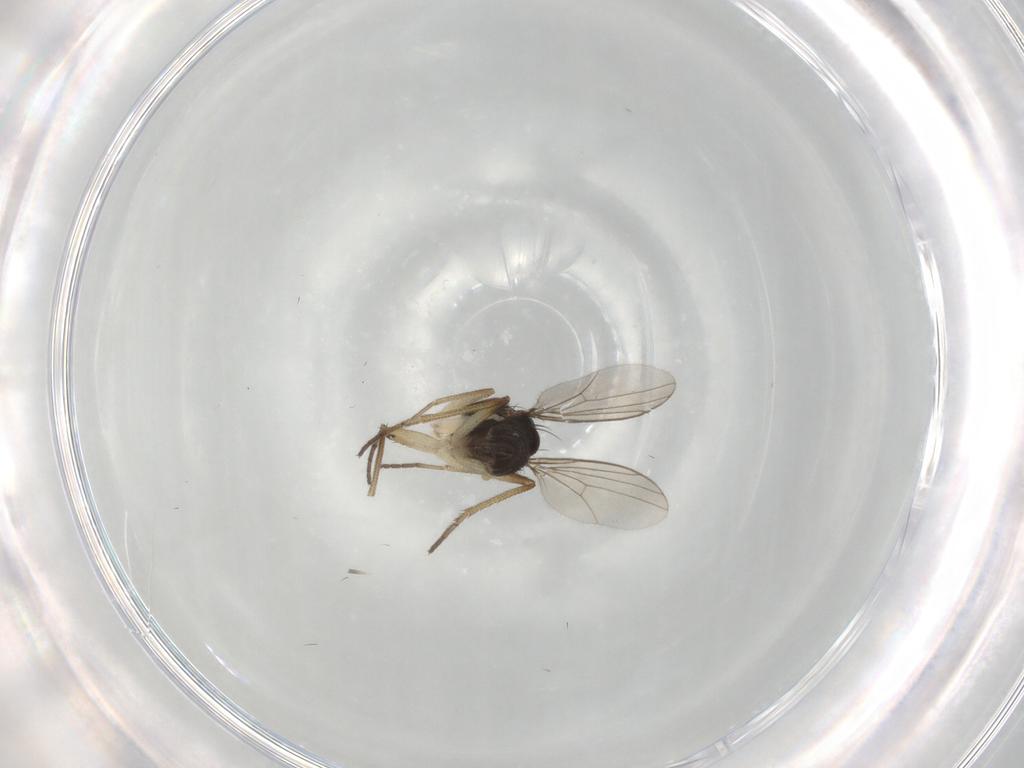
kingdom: Animalia
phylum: Arthropoda
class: Insecta
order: Diptera
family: Dolichopodidae
